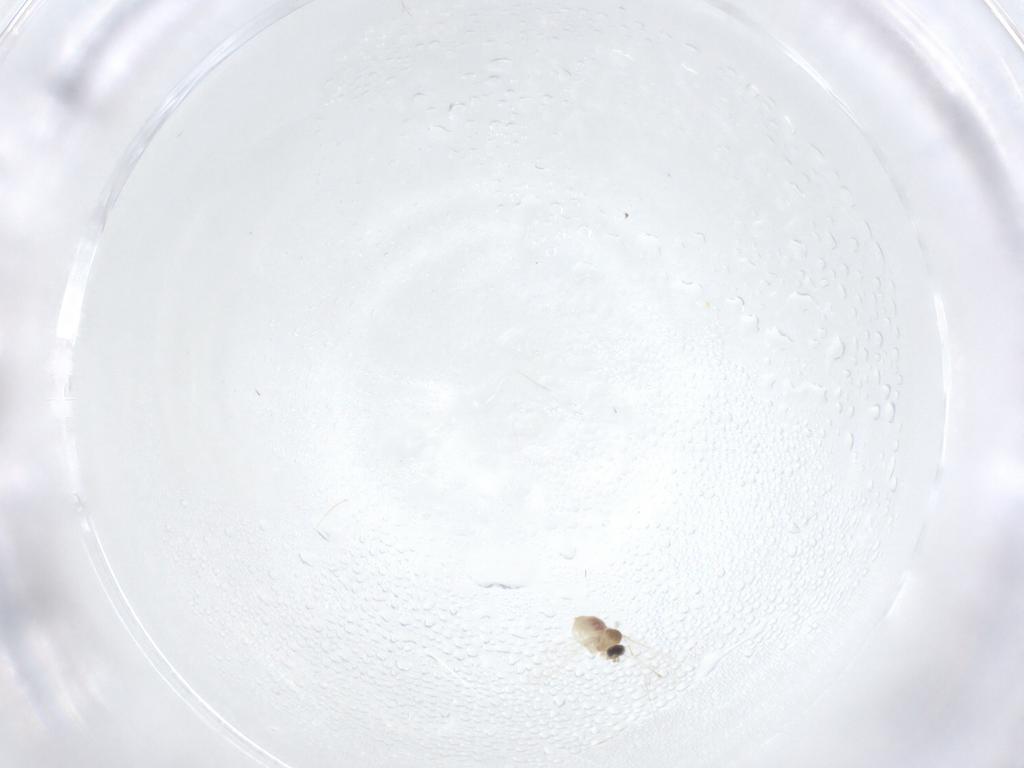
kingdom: Animalia
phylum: Arthropoda
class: Insecta
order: Diptera
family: Cecidomyiidae
